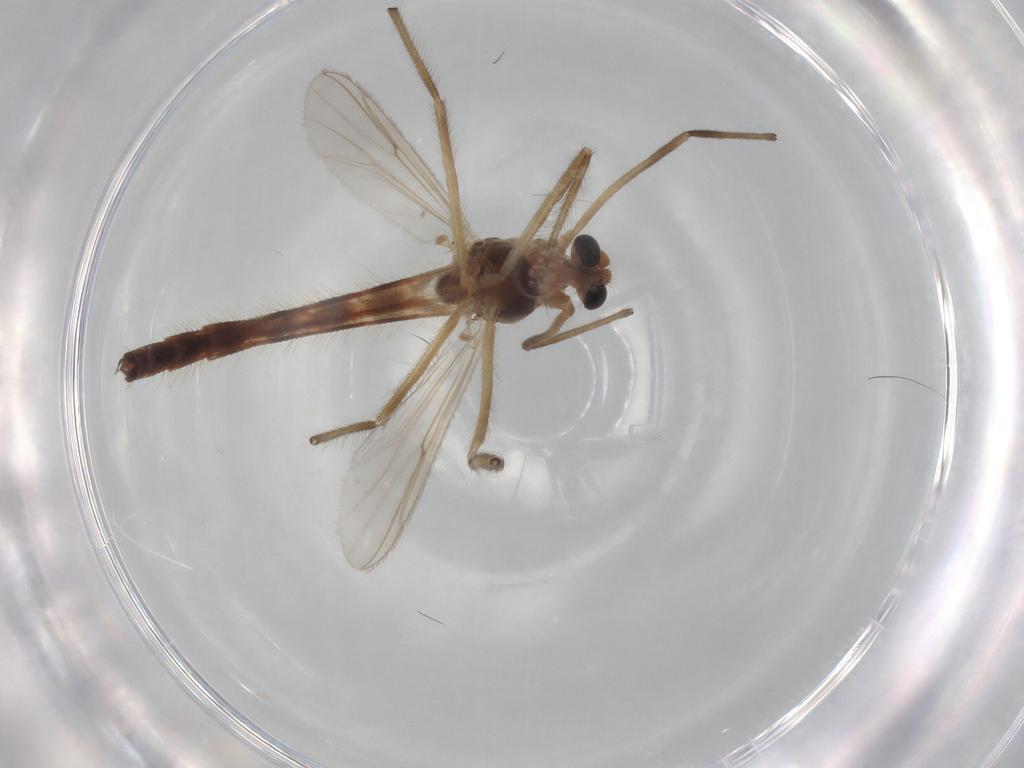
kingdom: Animalia
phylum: Arthropoda
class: Insecta
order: Diptera
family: Chironomidae
